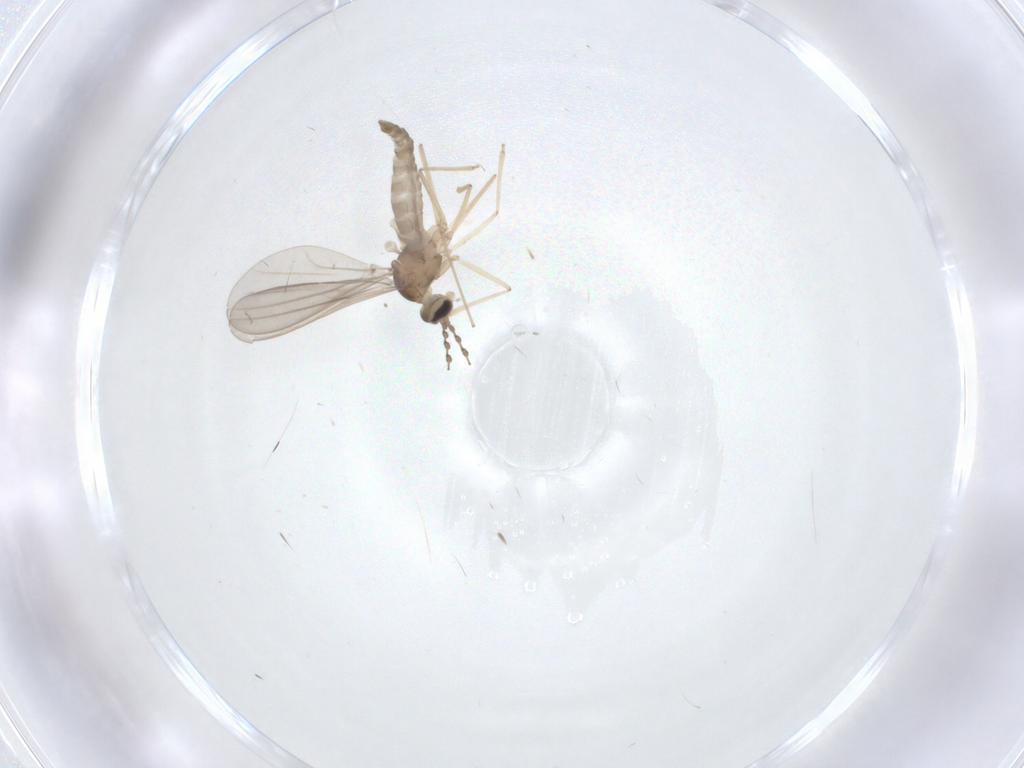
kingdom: Animalia
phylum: Arthropoda
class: Insecta
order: Diptera
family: Cecidomyiidae
